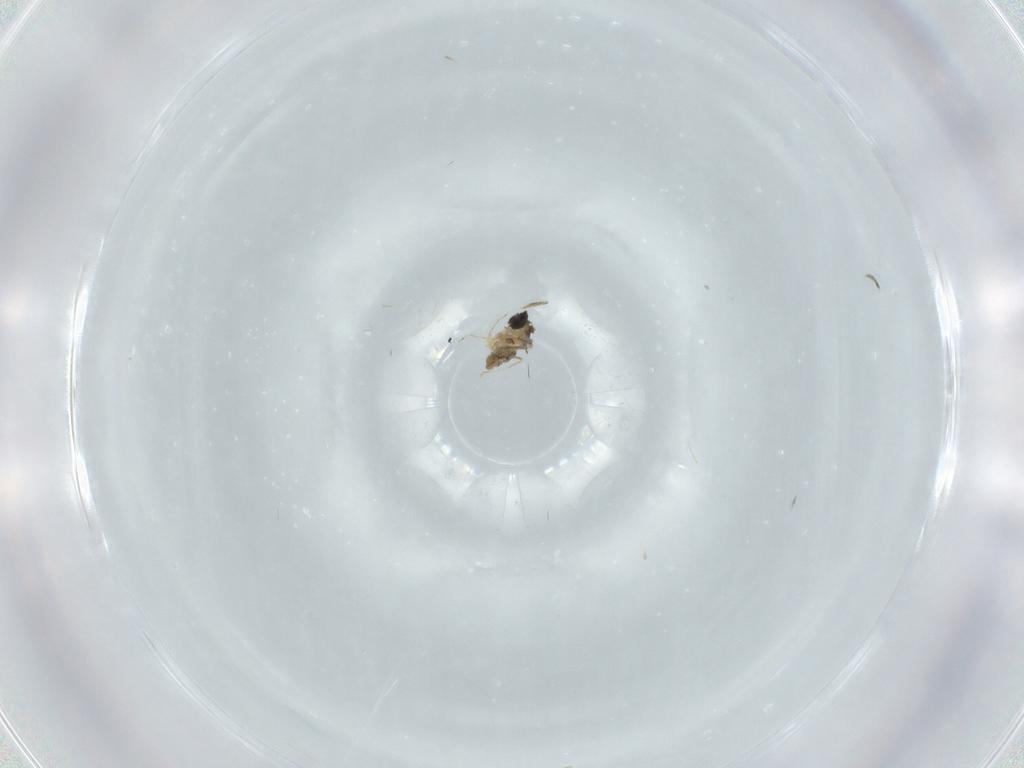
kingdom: Animalia
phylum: Arthropoda
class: Insecta
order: Diptera
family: Cecidomyiidae
